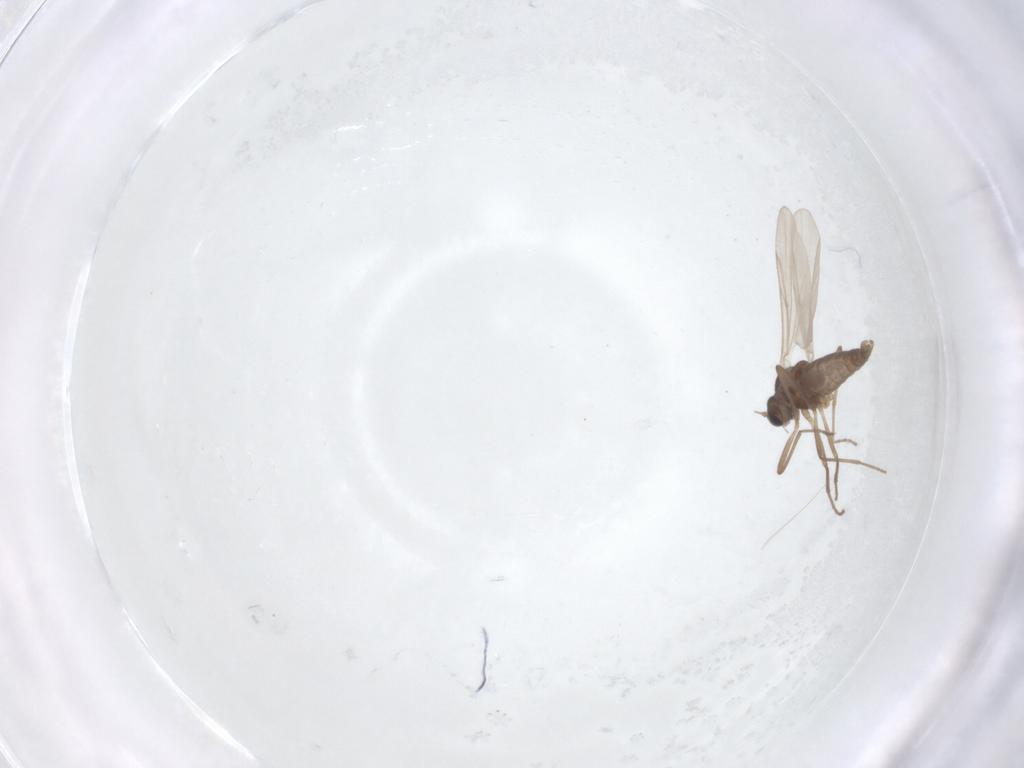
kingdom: Animalia
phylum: Arthropoda
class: Insecta
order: Diptera
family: Cecidomyiidae
